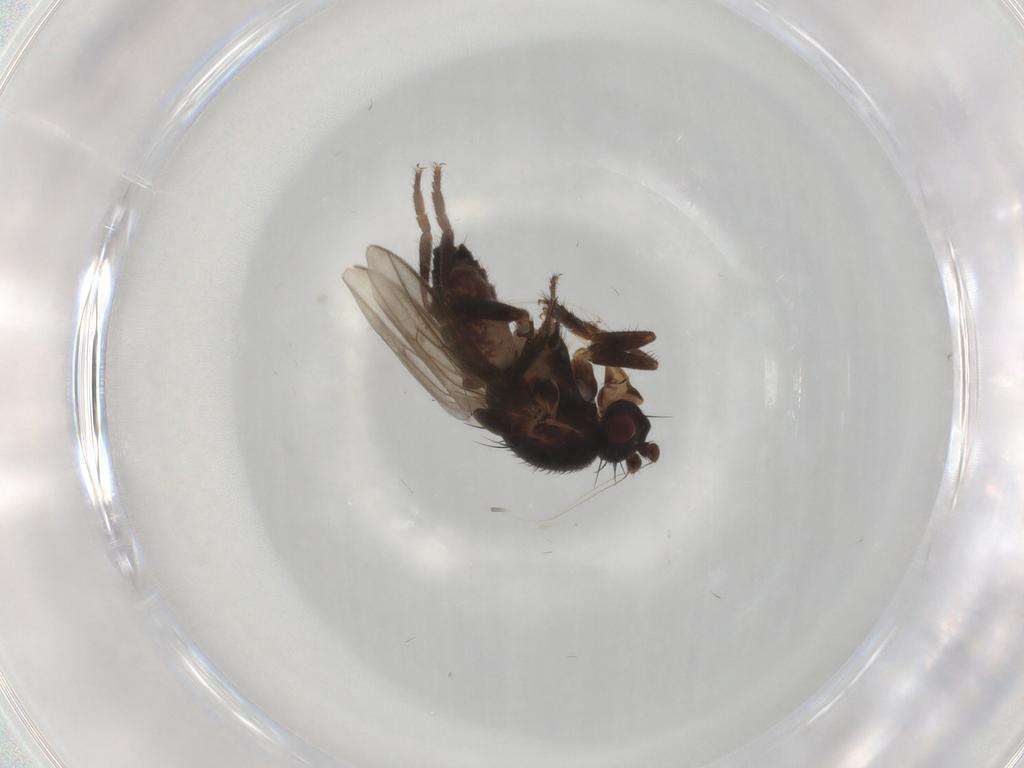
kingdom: Animalia
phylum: Arthropoda
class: Insecta
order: Diptera
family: Sphaeroceridae
